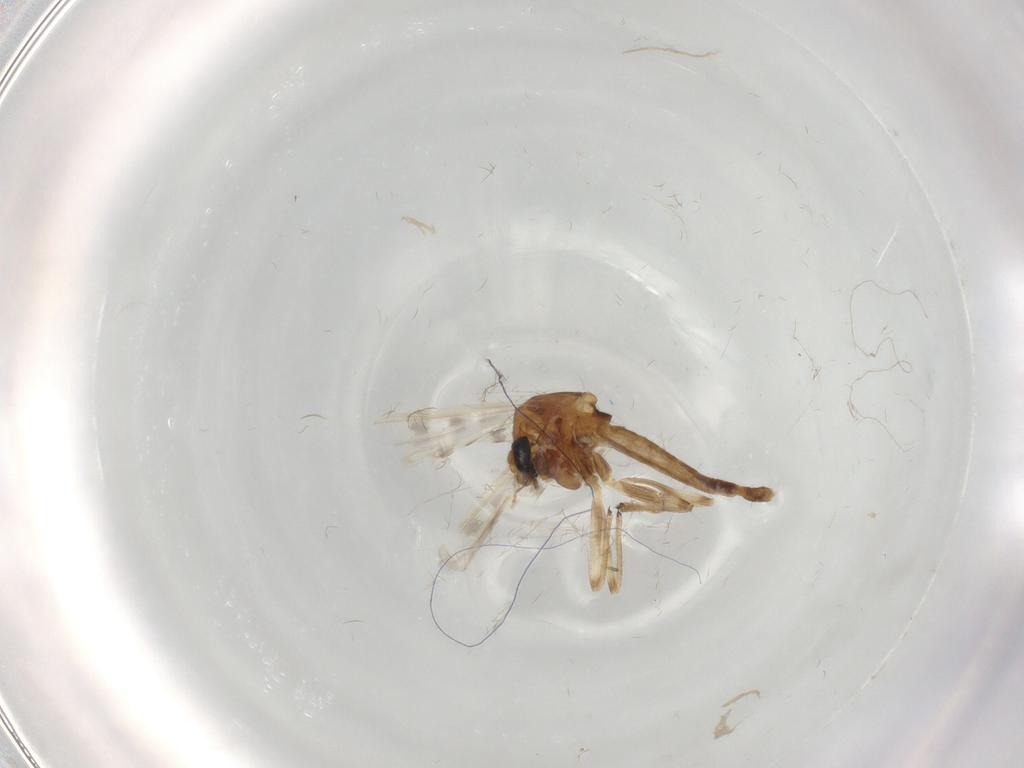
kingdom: Animalia
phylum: Arthropoda
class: Insecta
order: Diptera
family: Chironomidae
